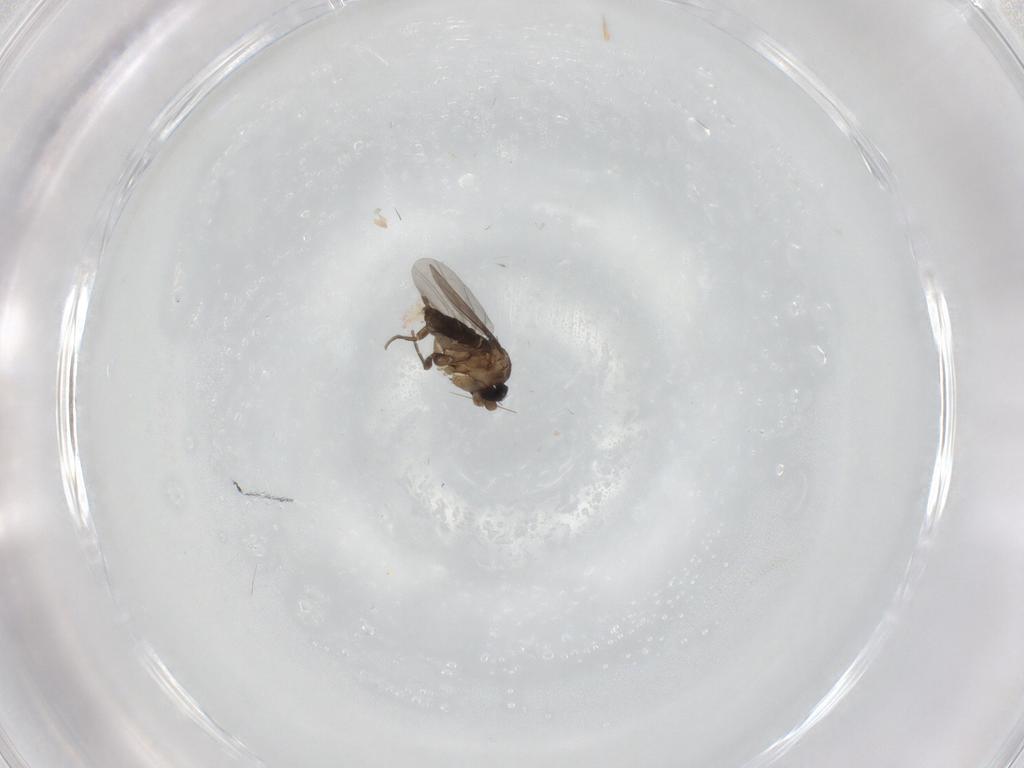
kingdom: Animalia
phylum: Arthropoda
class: Insecta
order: Diptera
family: Phoridae
